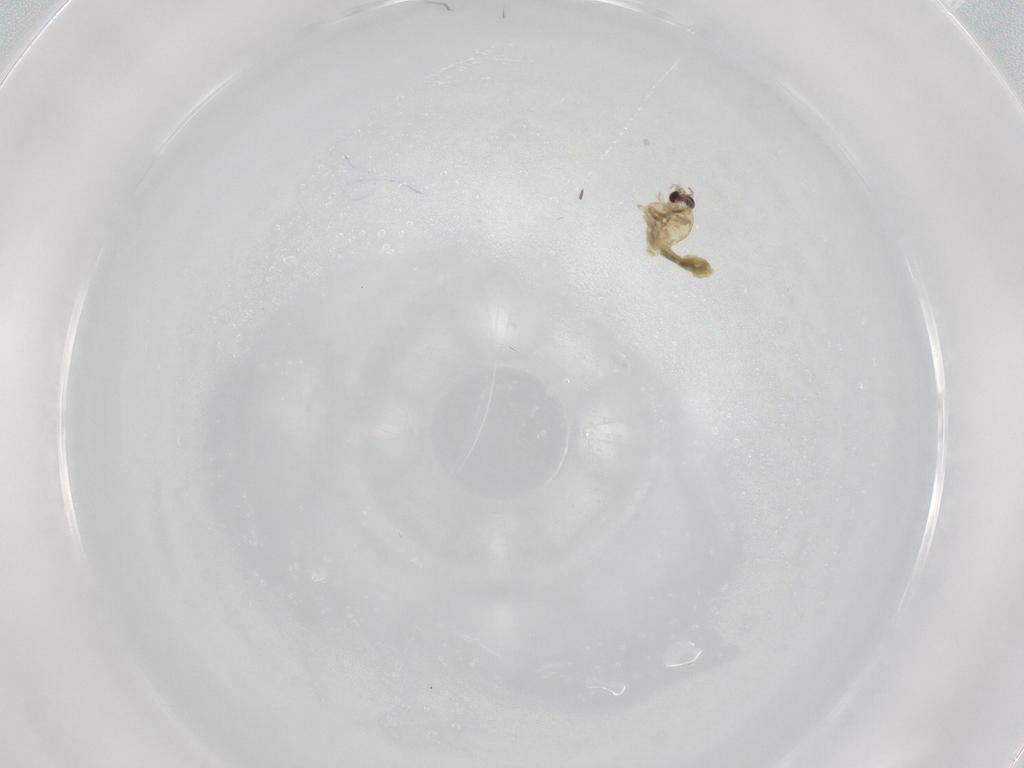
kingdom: Animalia
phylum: Arthropoda
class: Insecta
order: Diptera
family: Chironomidae
